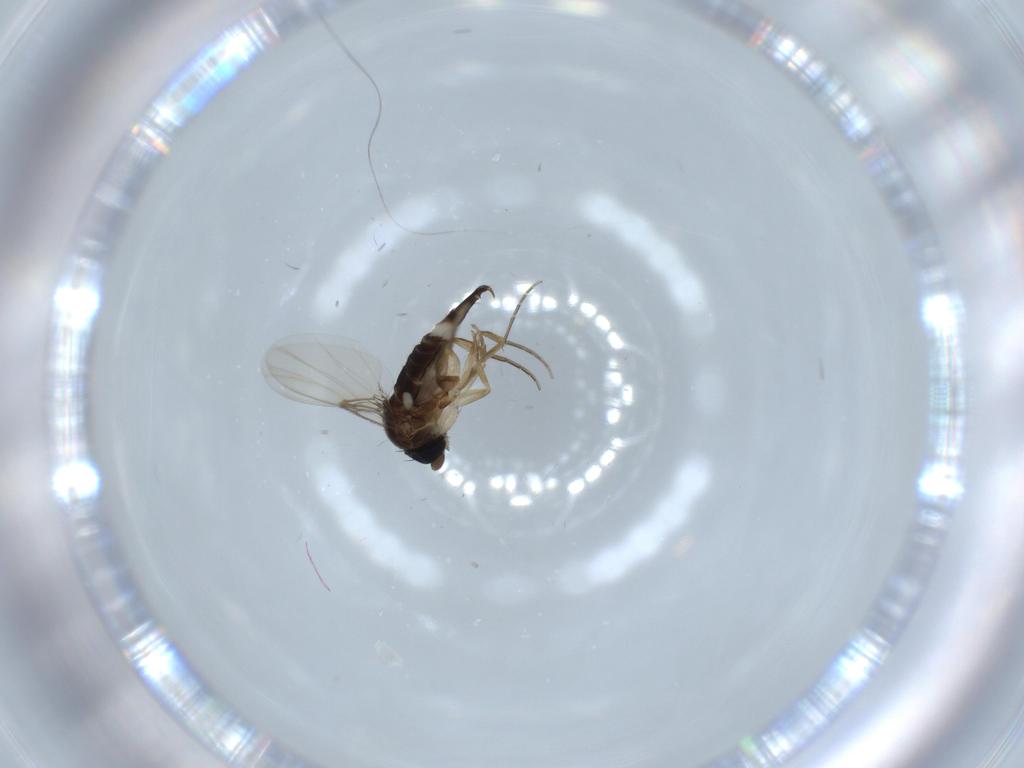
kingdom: Animalia
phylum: Arthropoda
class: Insecta
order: Diptera
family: Phoridae
